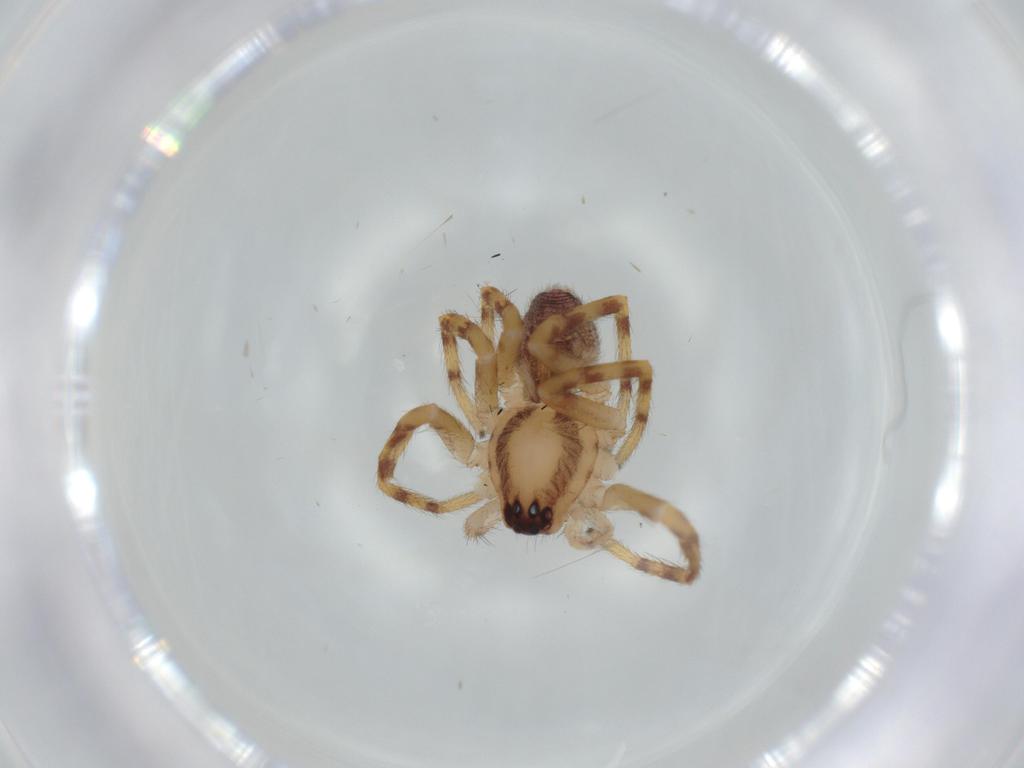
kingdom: Animalia
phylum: Arthropoda
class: Arachnida
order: Araneae
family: Corinnidae
